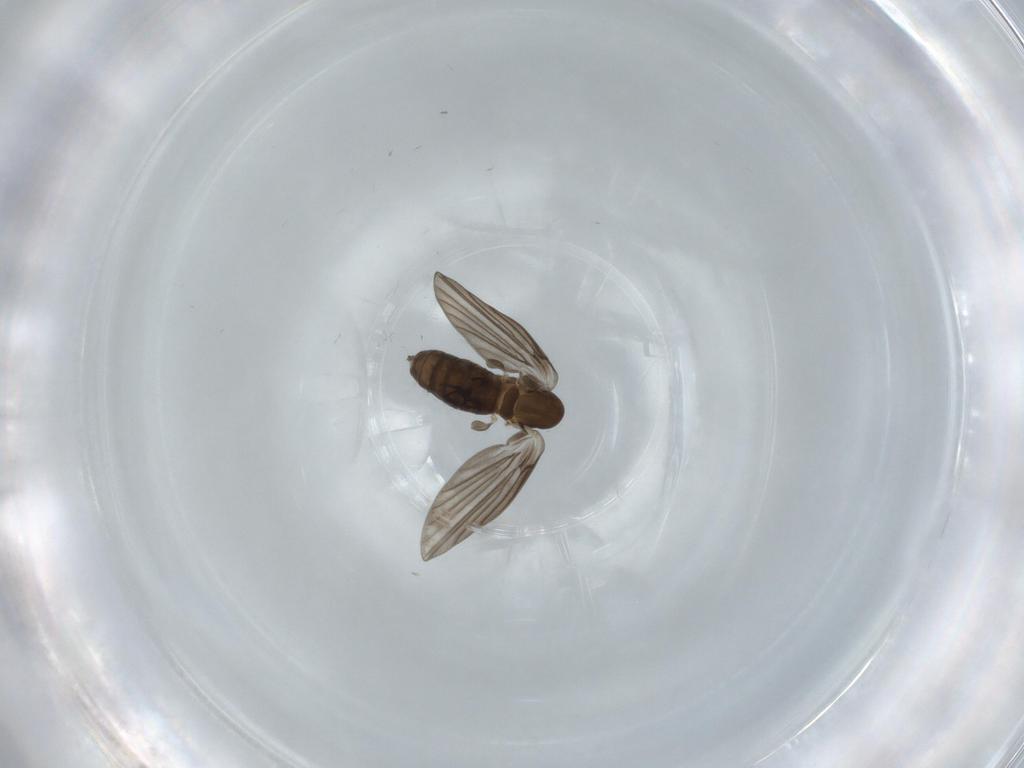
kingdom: Animalia
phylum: Arthropoda
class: Insecta
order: Diptera
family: Psychodidae
